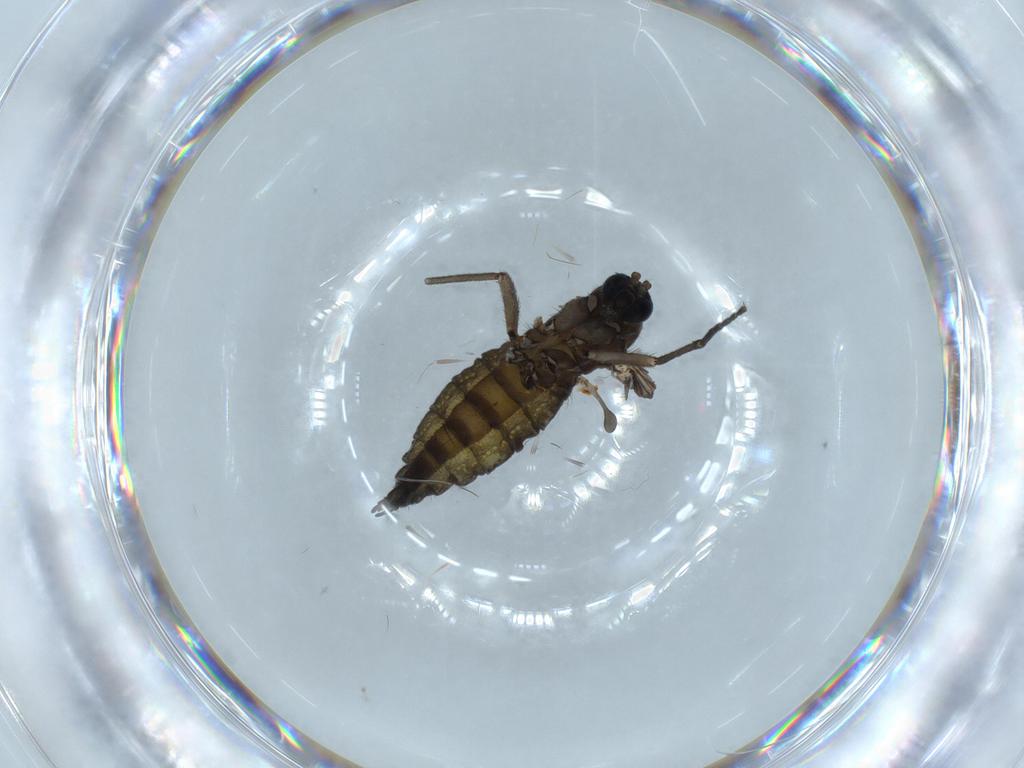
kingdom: Animalia
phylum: Arthropoda
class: Insecta
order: Diptera
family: Sciaridae
